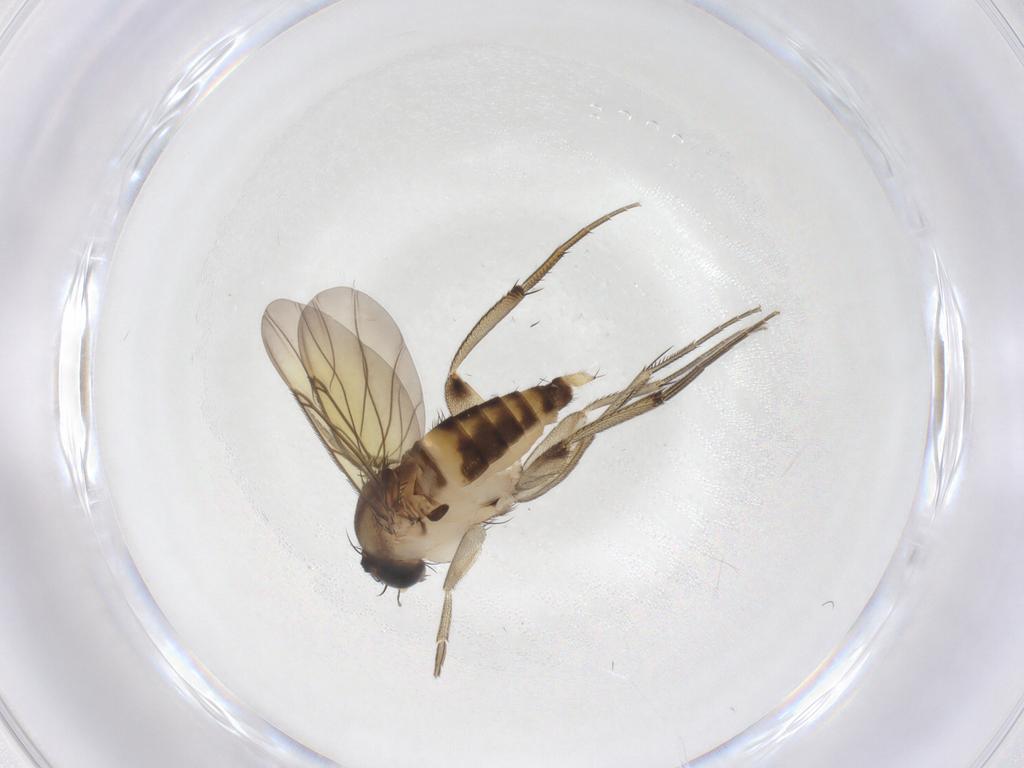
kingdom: Animalia
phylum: Arthropoda
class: Insecta
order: Diptera
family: Phoridae
